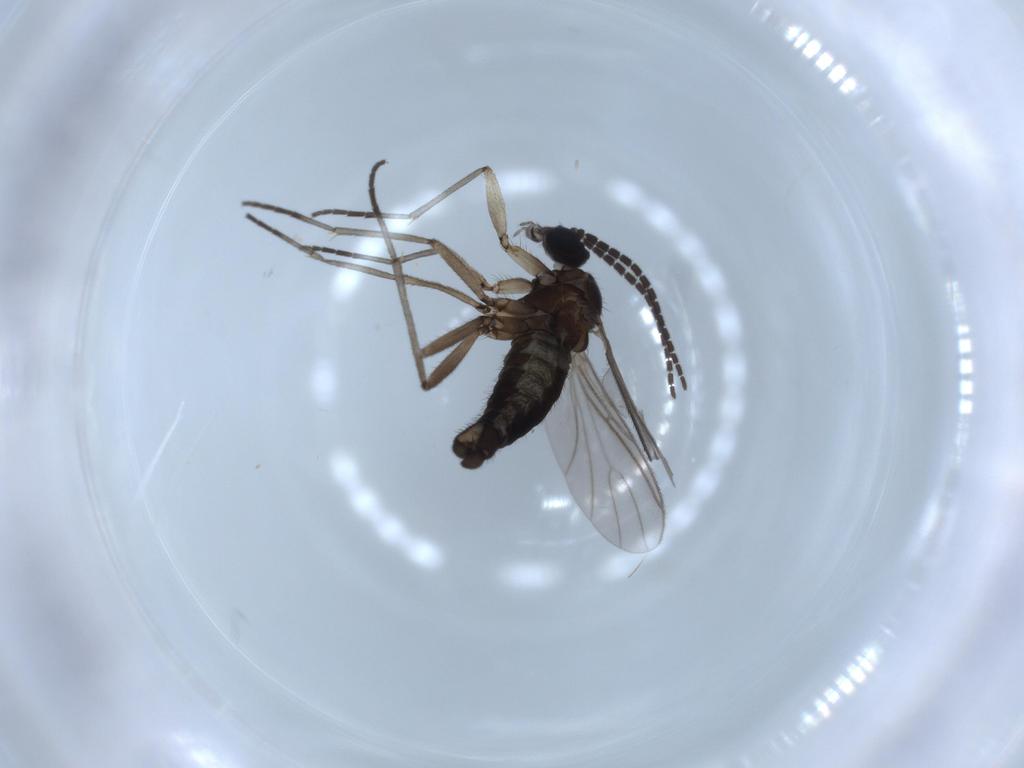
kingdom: Animalia
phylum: Arthropoda
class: Insecta
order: Diptera
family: Sciaridae
